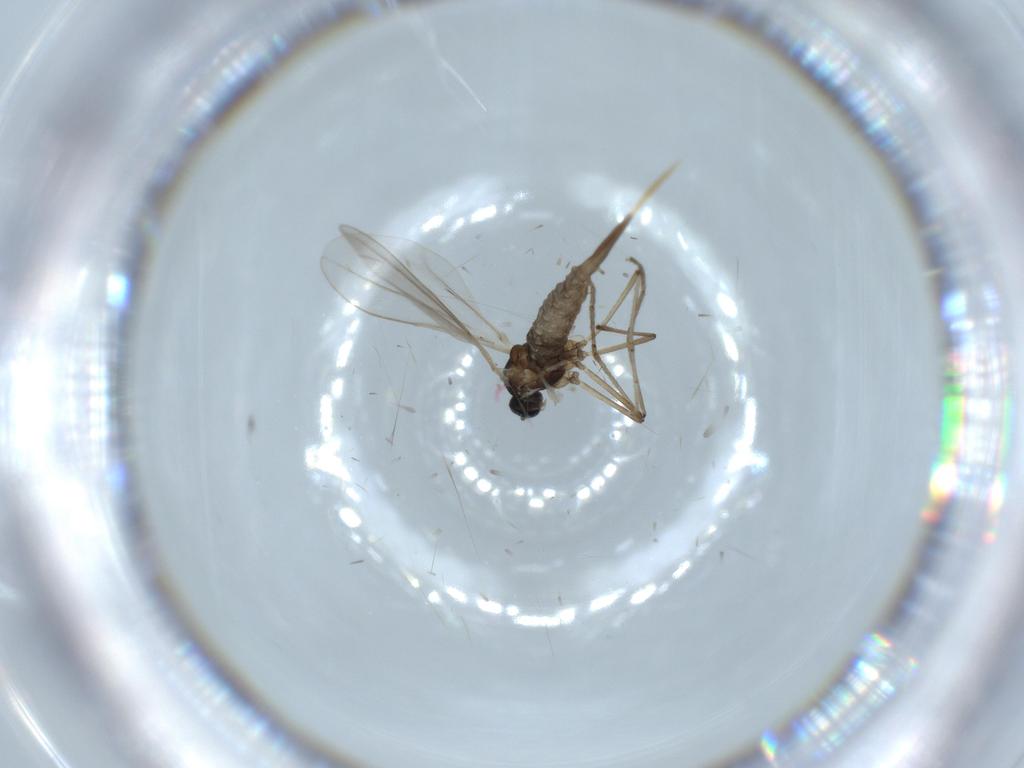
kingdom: Animalia
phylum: Arthropoda
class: Insecta
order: Diptera
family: Cecidomyiidae
